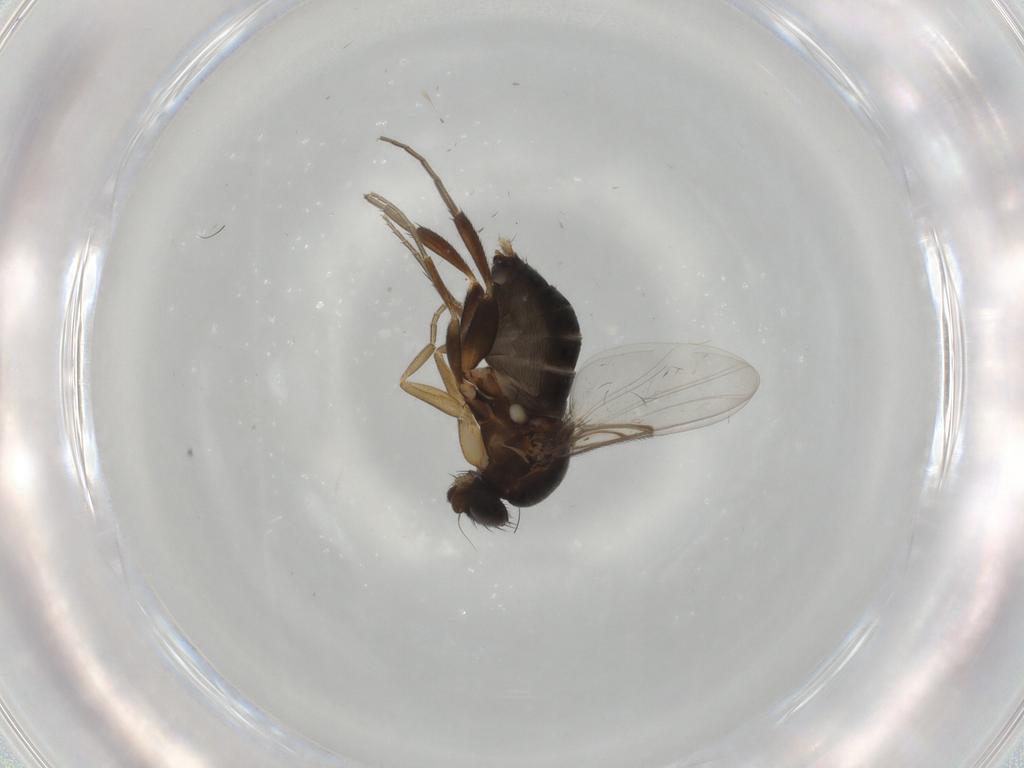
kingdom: Animalia
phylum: Arthropoda
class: Insecta
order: Diptera
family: Phoridae
